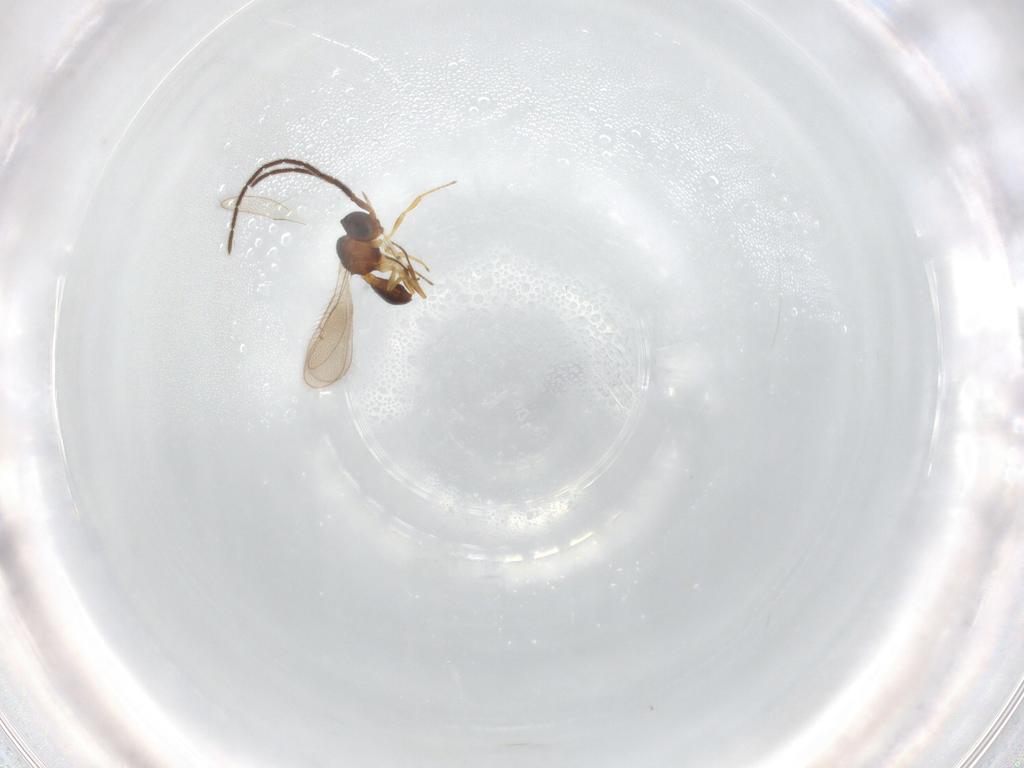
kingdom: Animalia
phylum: Arthropoda
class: Insecta
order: Hymenoptera
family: Scelionidae
